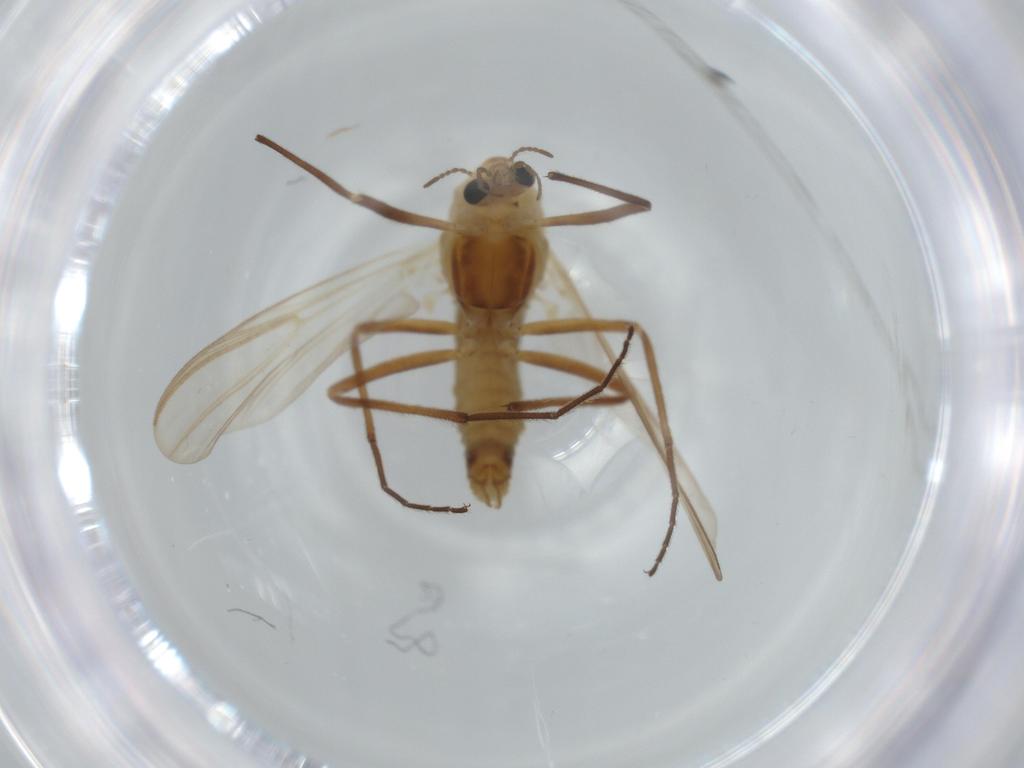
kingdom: Animalia
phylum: Arthropoda
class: Insecta
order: Diptera
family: Sphaeroceridae
